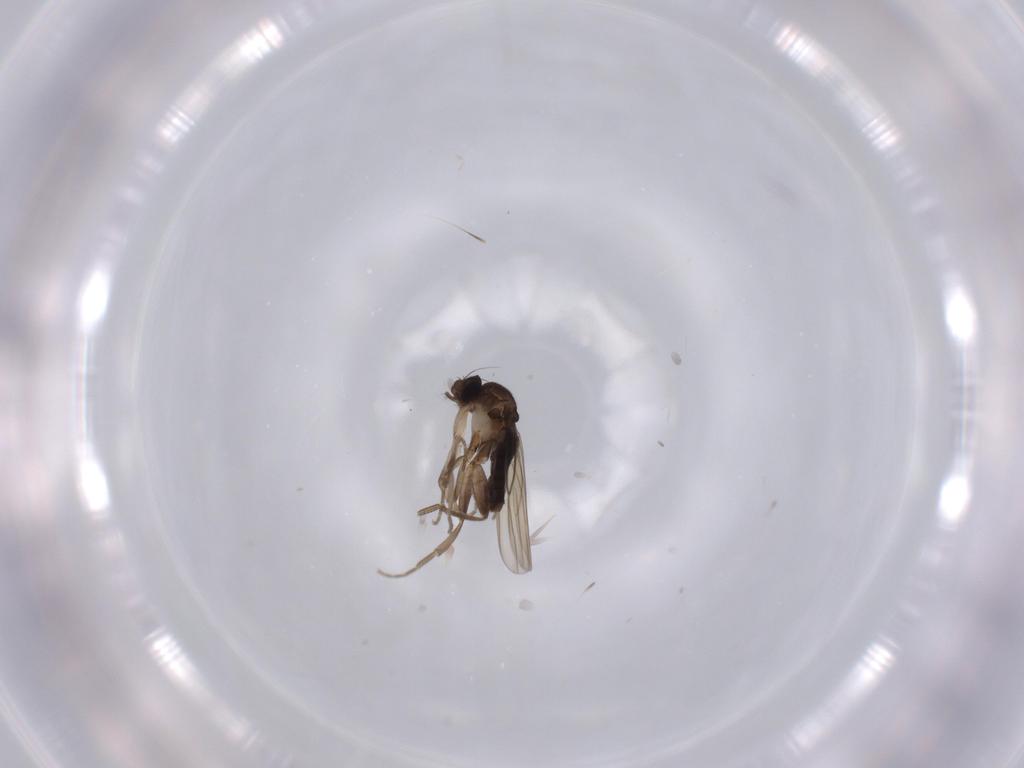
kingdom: Animalia
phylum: Arthropoda
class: Insecta
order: Diptera
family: Phoridae
